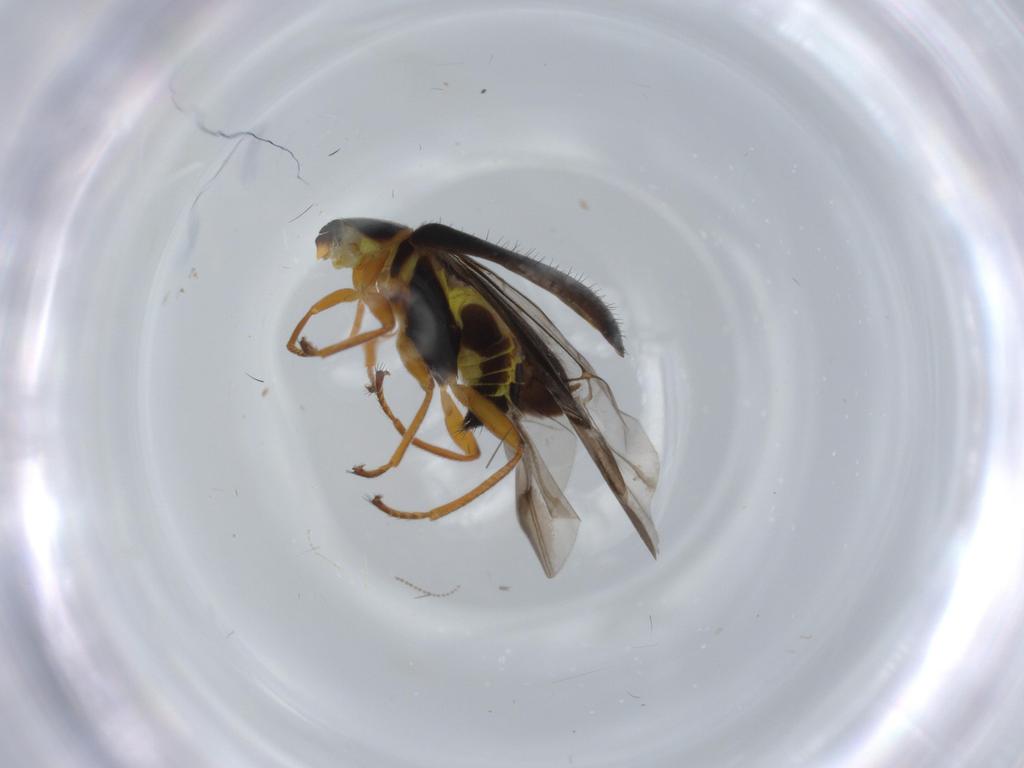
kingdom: Animalia
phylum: Arthropoda
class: Insecta
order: Coleoptera
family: Melyridae
